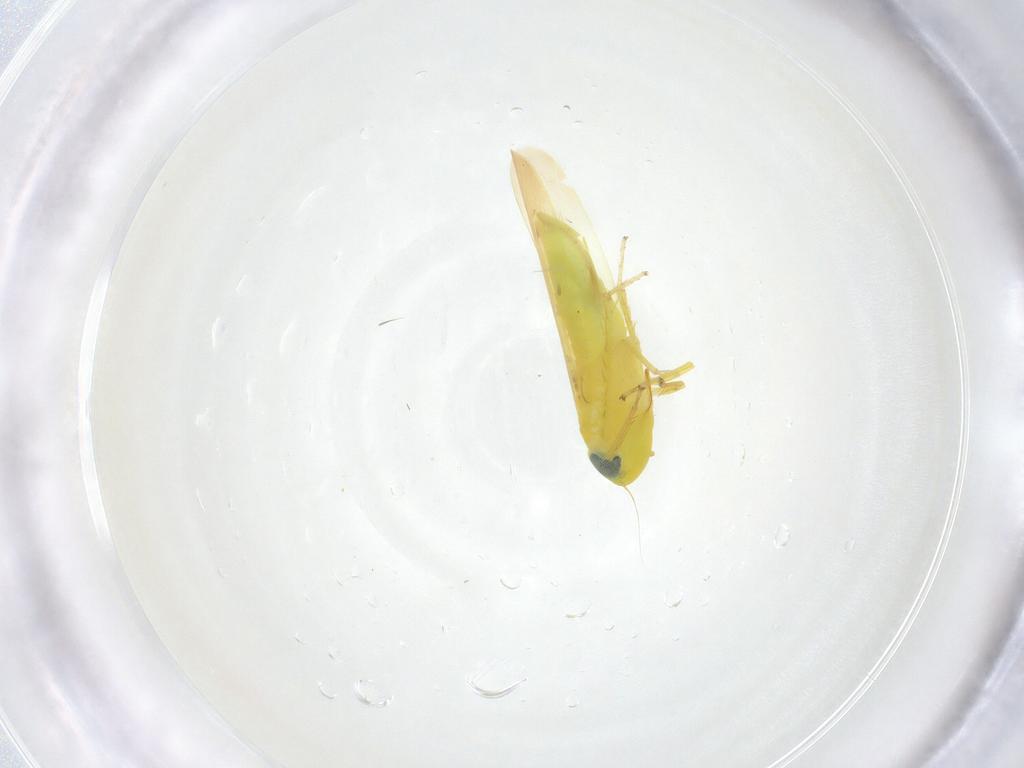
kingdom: Animalia
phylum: Arthropoda
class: Insecta
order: Hemiptera
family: Cicadellidae
